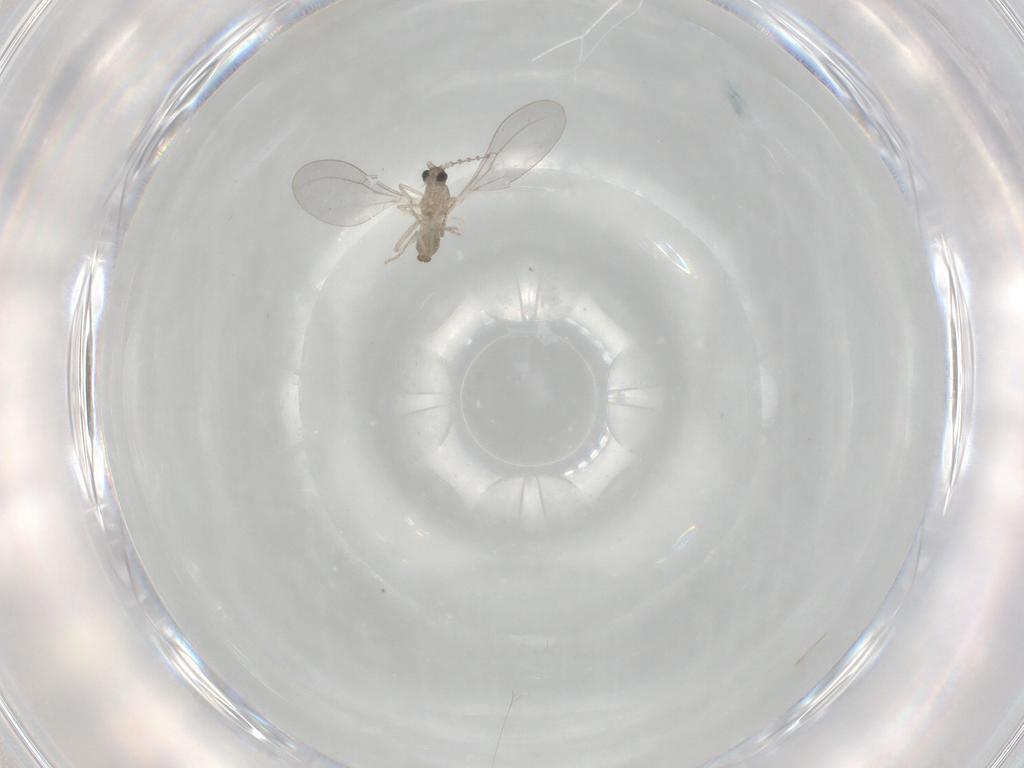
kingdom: Animalia
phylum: Arthropoda
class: Insecta
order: Diptera
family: Cecidomyiidae
